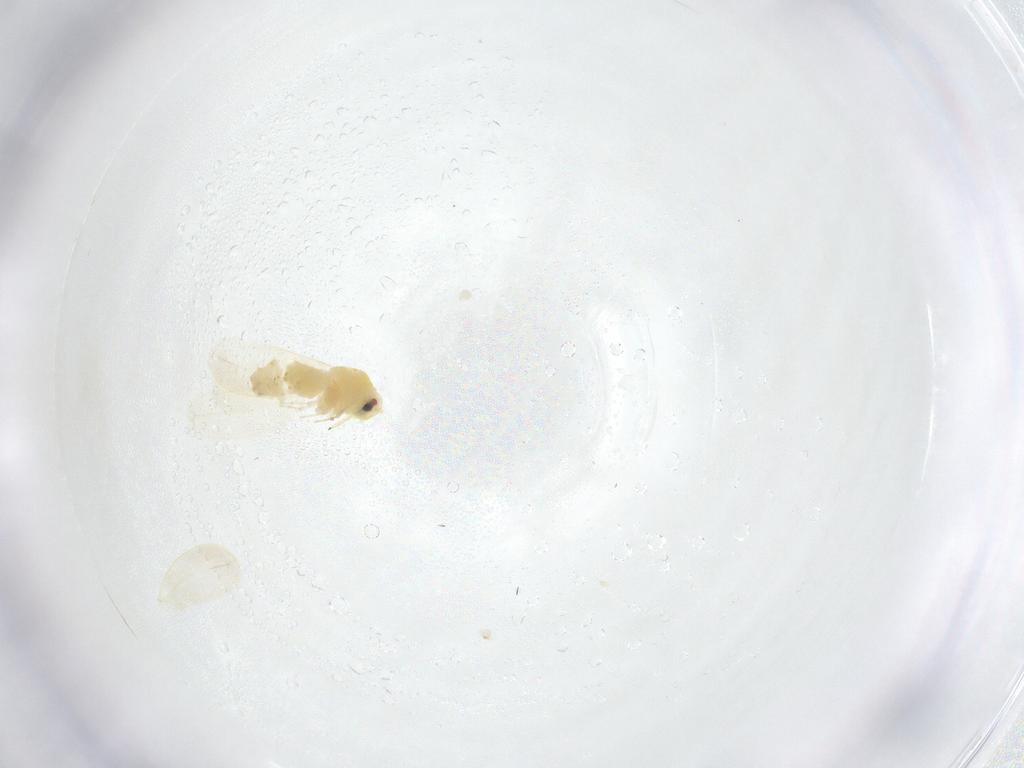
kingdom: Animalia
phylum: Arthropoda
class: Insecta
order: Hemiptera
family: Aleyrodidae
